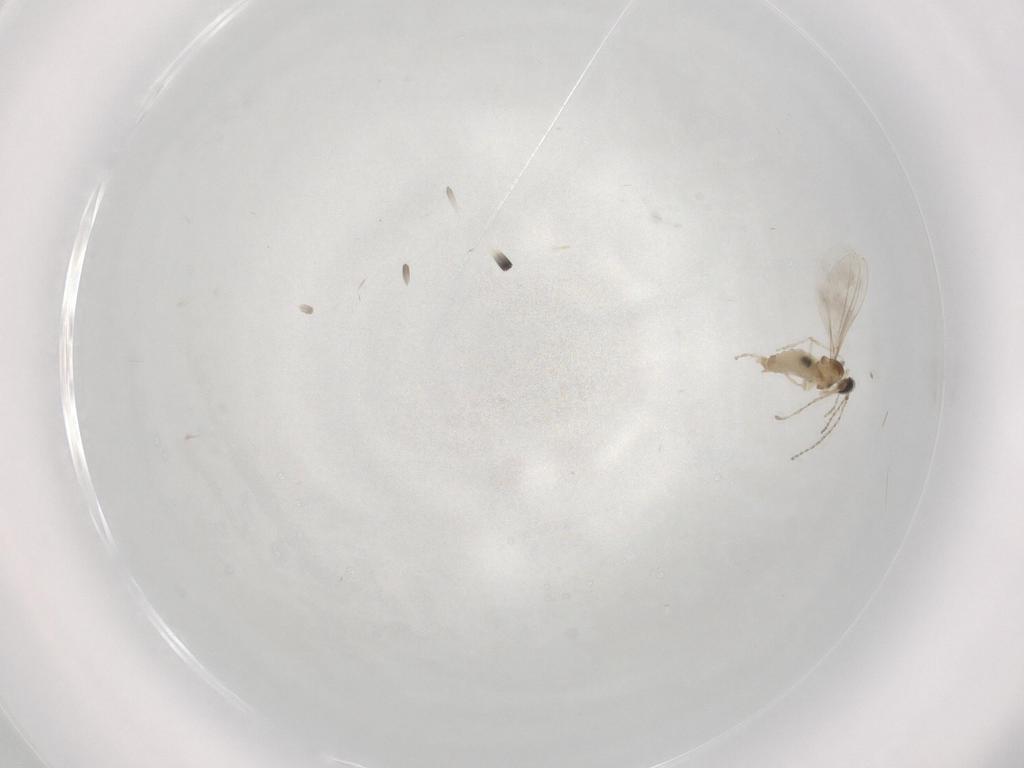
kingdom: Animalia
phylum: Arthropoda
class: Insecta
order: Diptera
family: Cecidomyiidae
